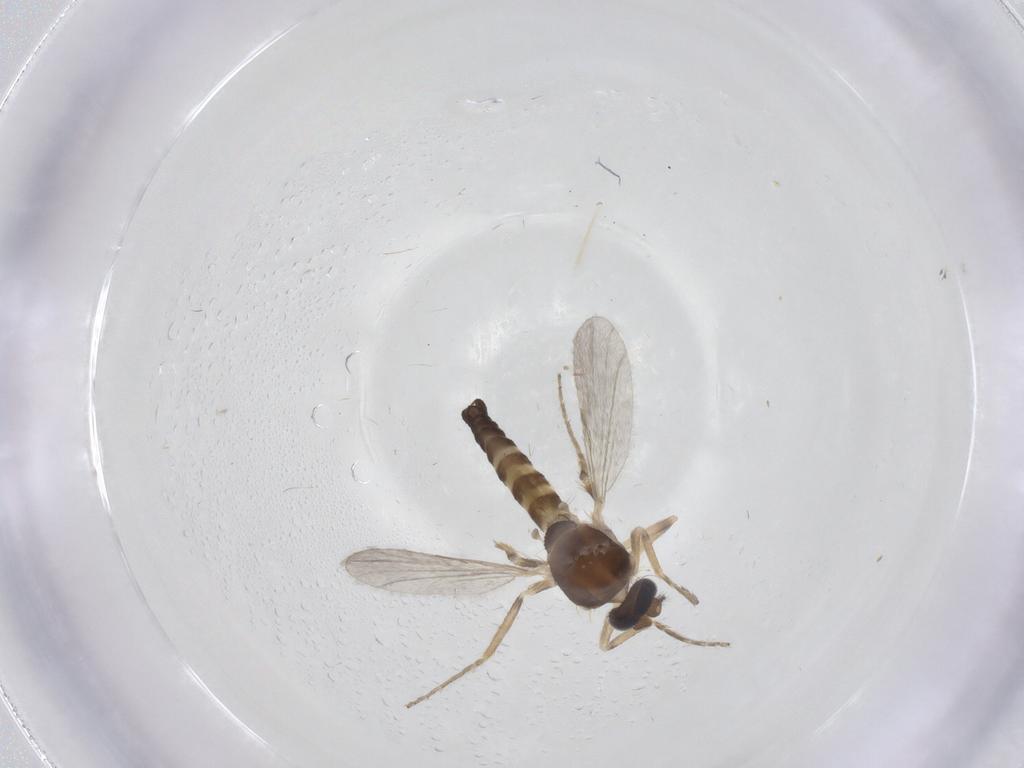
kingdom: Animalia
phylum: Arthropoda
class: Insecta
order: Diptera
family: Ceratopogonidae
